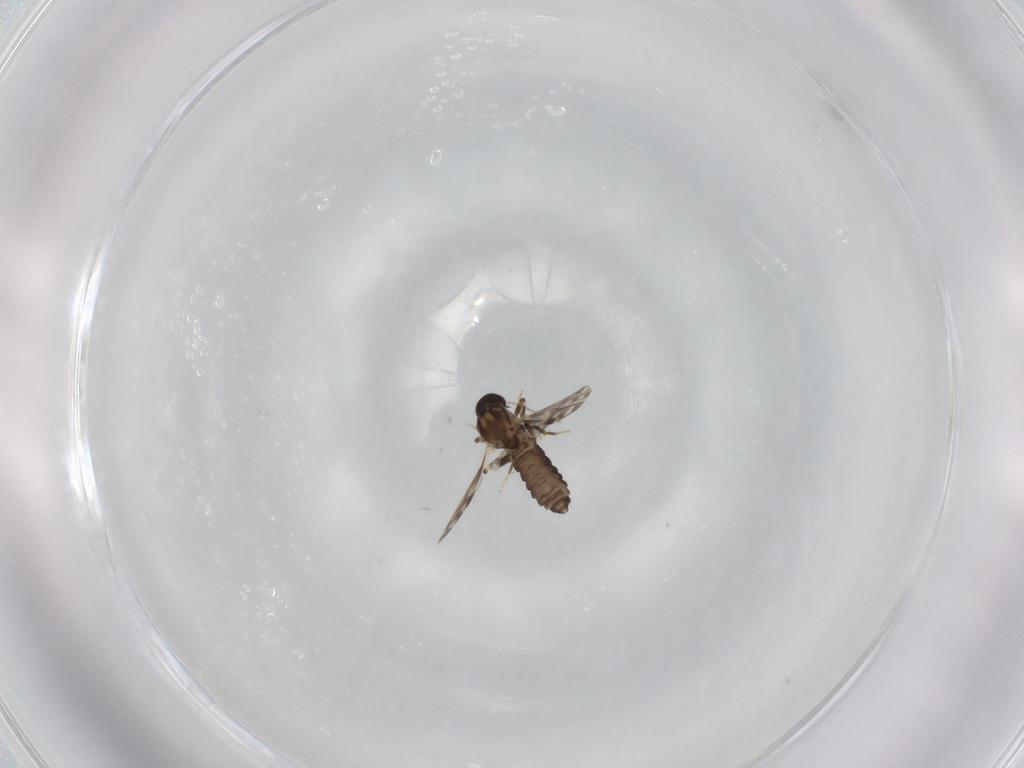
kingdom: Animalia
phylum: Arthropoda
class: Insecta
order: Diptera
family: Ceratopogonidae
